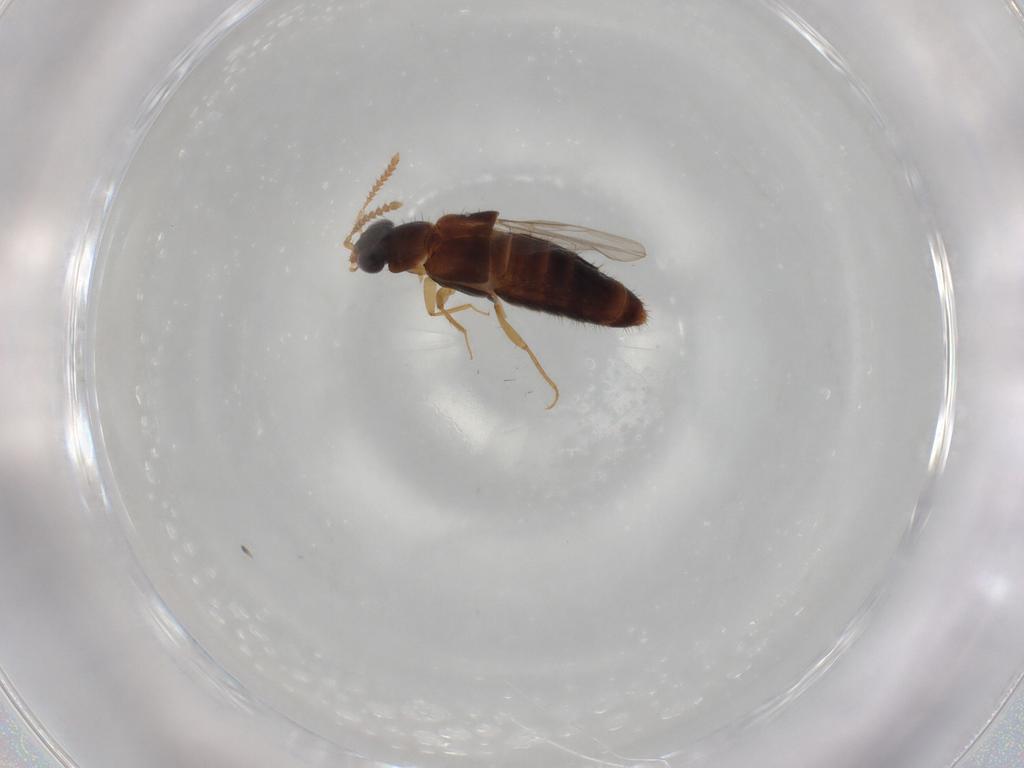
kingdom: Animalia
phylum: Arthropoda
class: Insecta
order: Coleoptera
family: Staphylinidae
